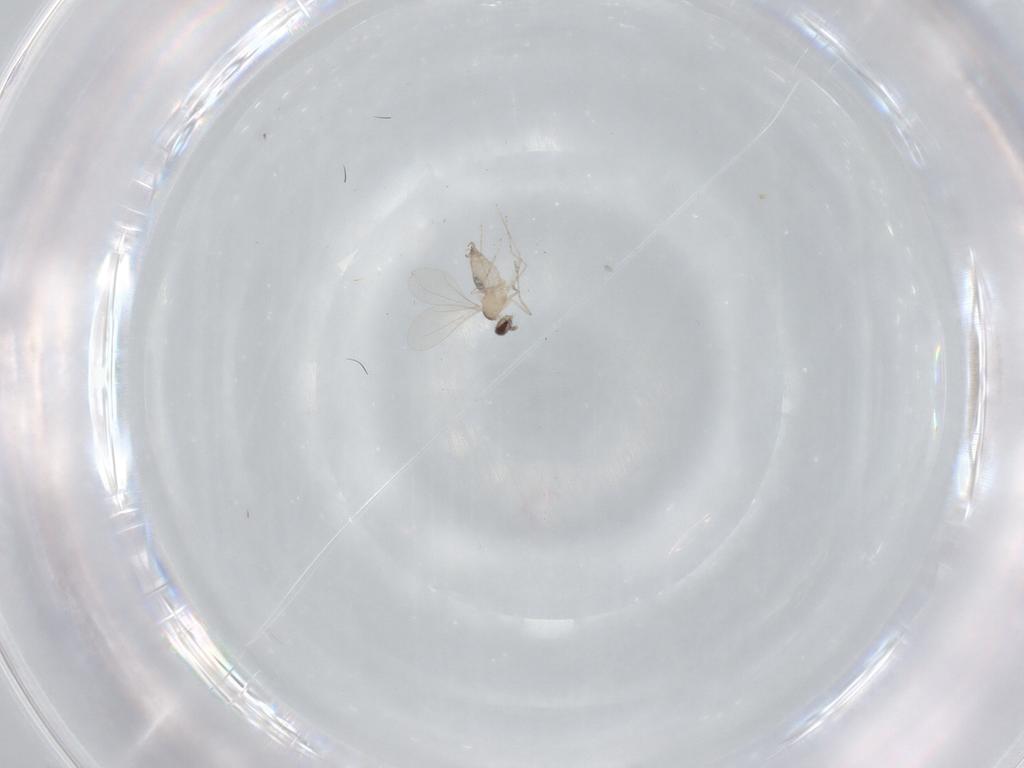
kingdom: Animalia
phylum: Arthropoda
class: Insecta
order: Diptera
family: Cecidomyiidae
